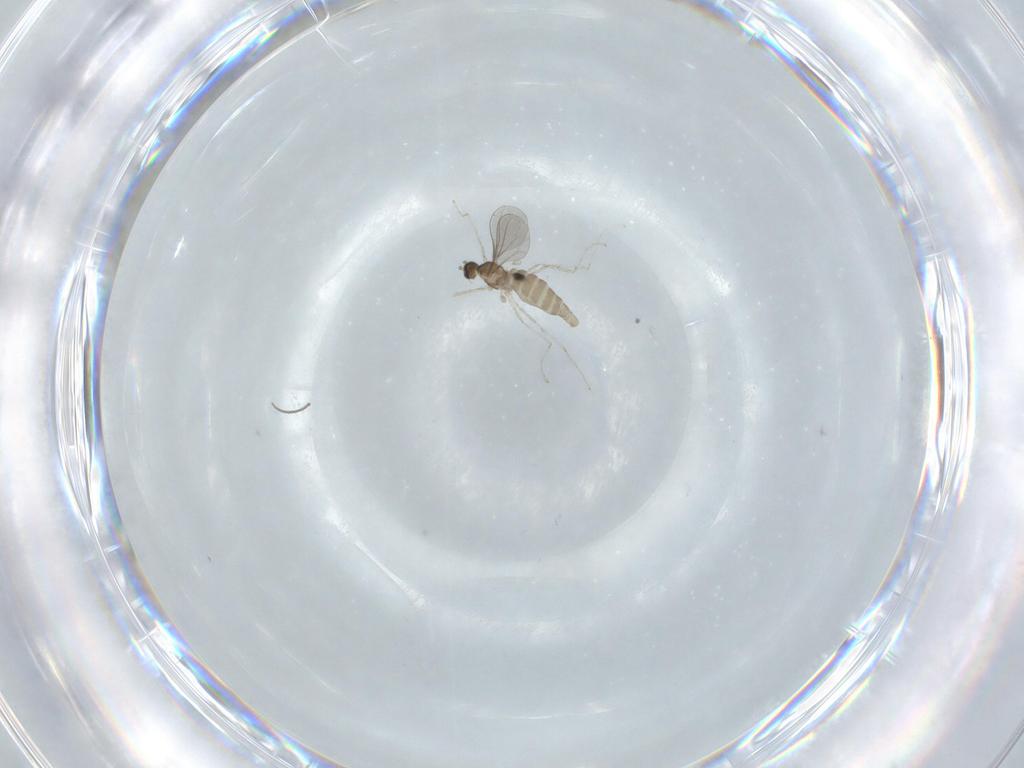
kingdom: Animalia
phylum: Arthropoda
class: Insecta
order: Diptera
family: Cecidomyiidae
